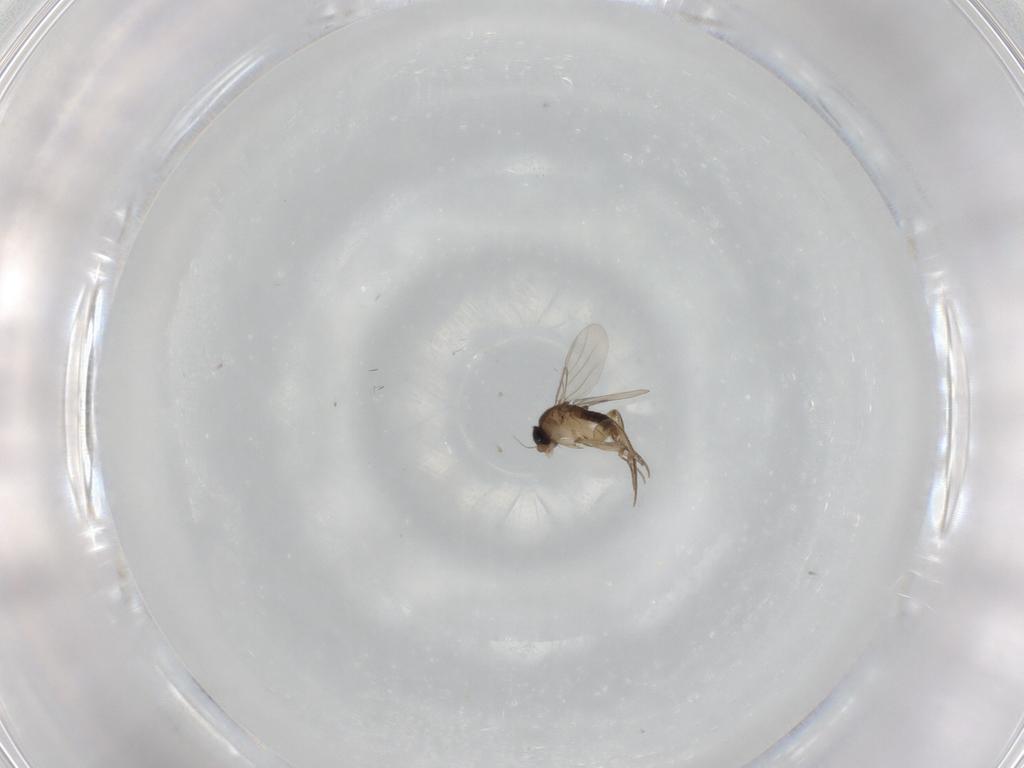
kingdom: Animalia
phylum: Arthropoda
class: Insecta
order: Diptera
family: Phoridae
